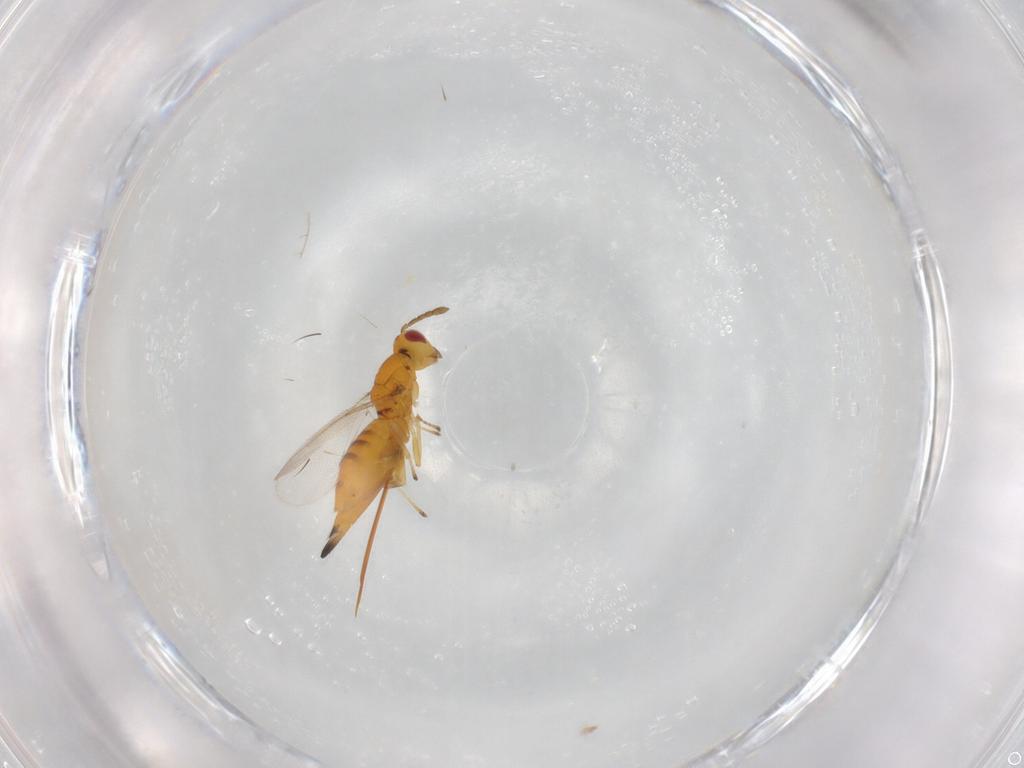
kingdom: Animalia
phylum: Arthropoda
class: Insecta
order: Hymenoptera
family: Eulophidae
